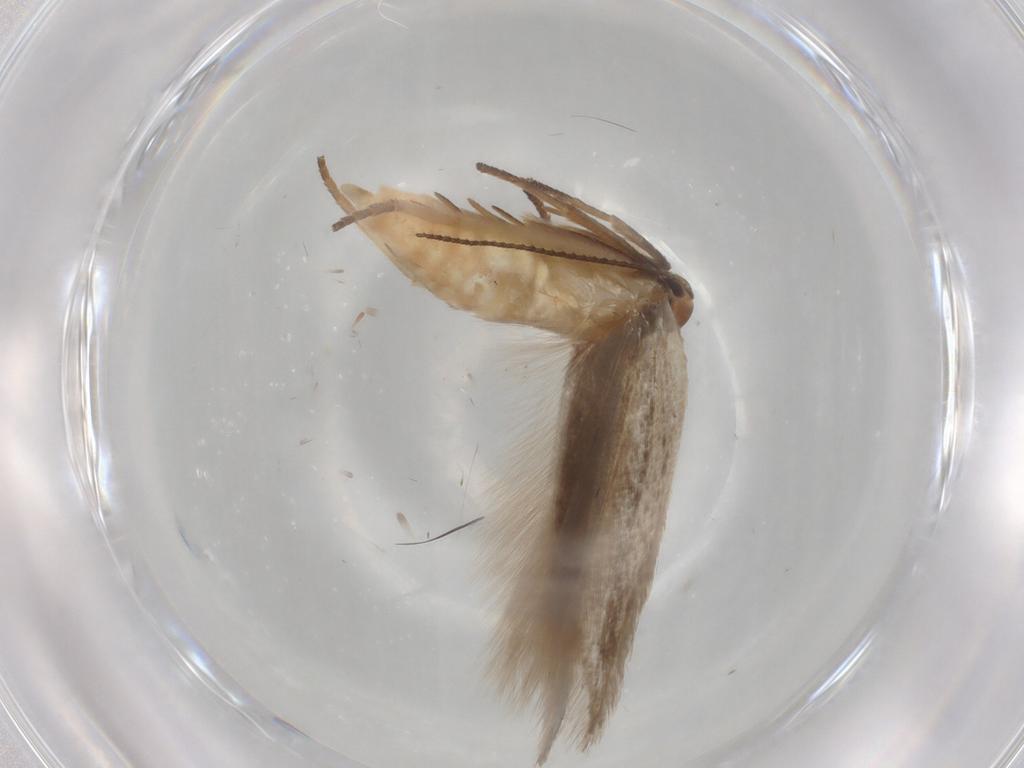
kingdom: Animalia
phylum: Arthropoda
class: Insecta
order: Lepidoptera
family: Gelechiidae
